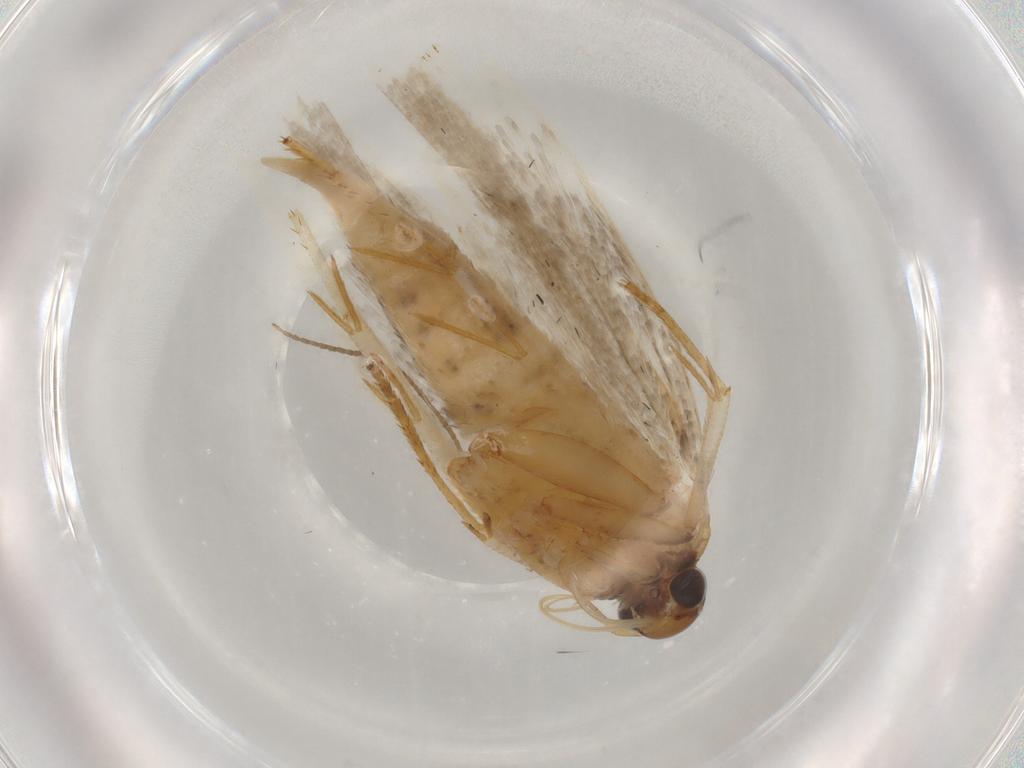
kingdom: Animalia
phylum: Arthropoda
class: Insecta
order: Lepidoptera
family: Gelechiidae
